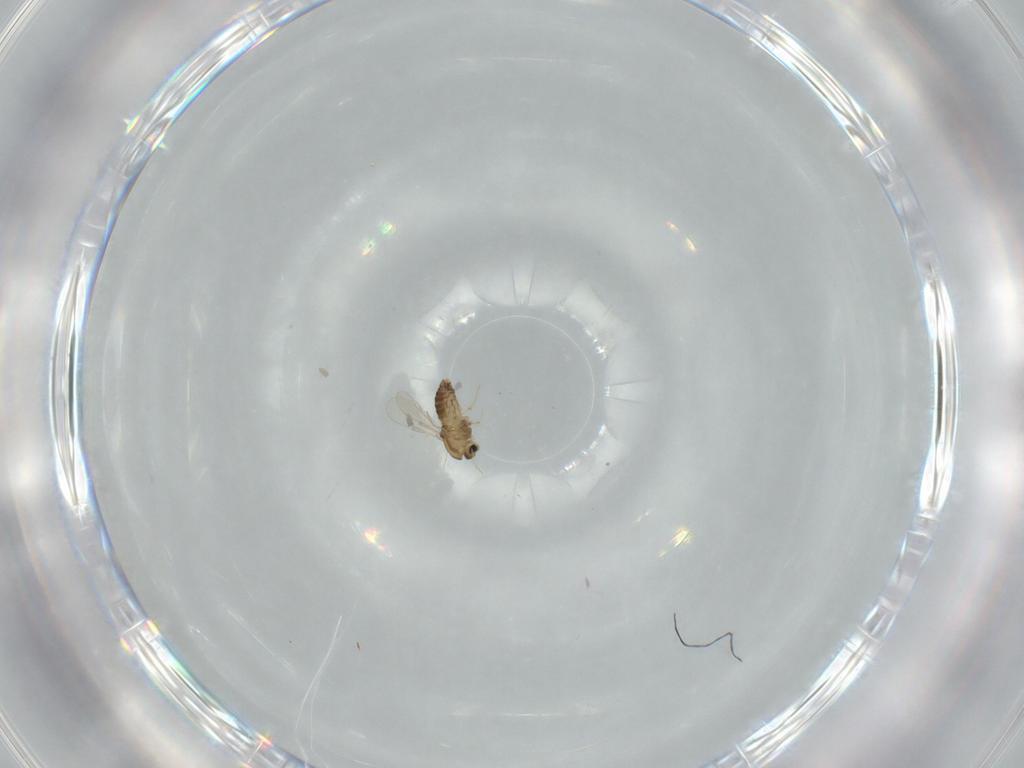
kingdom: Animalia
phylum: Arthropoda
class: Insecta
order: Diptera
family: Chironomidae
